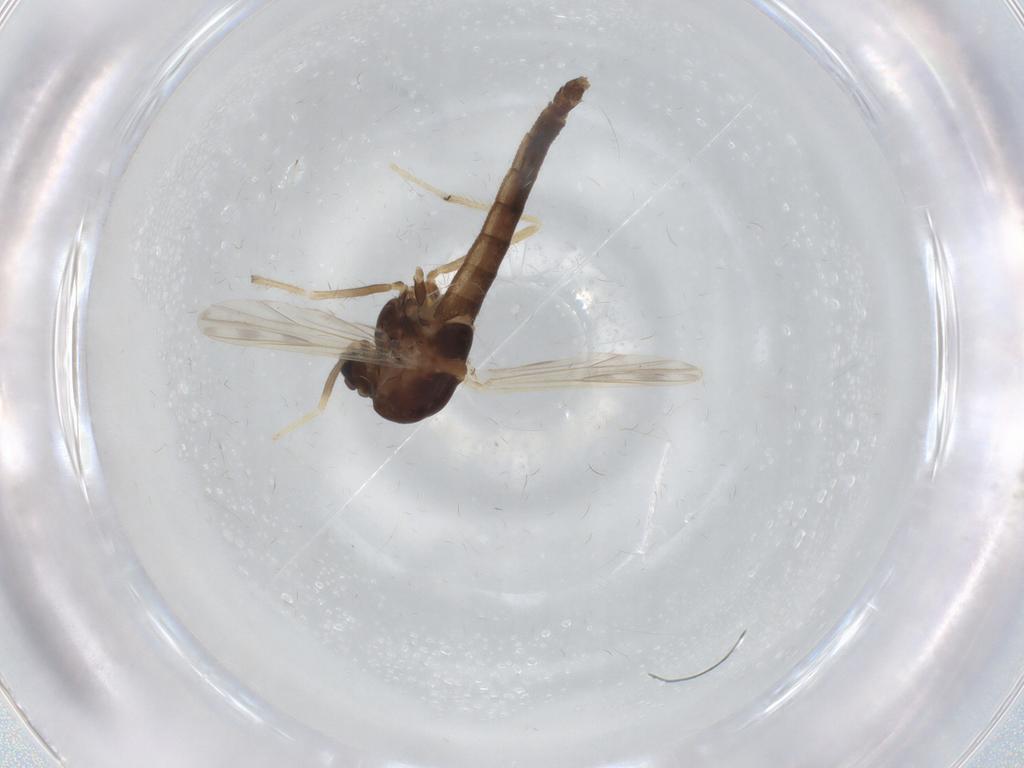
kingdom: Animalia
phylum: Arthropoda
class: Insecta
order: Diptera
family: Chironomidae
